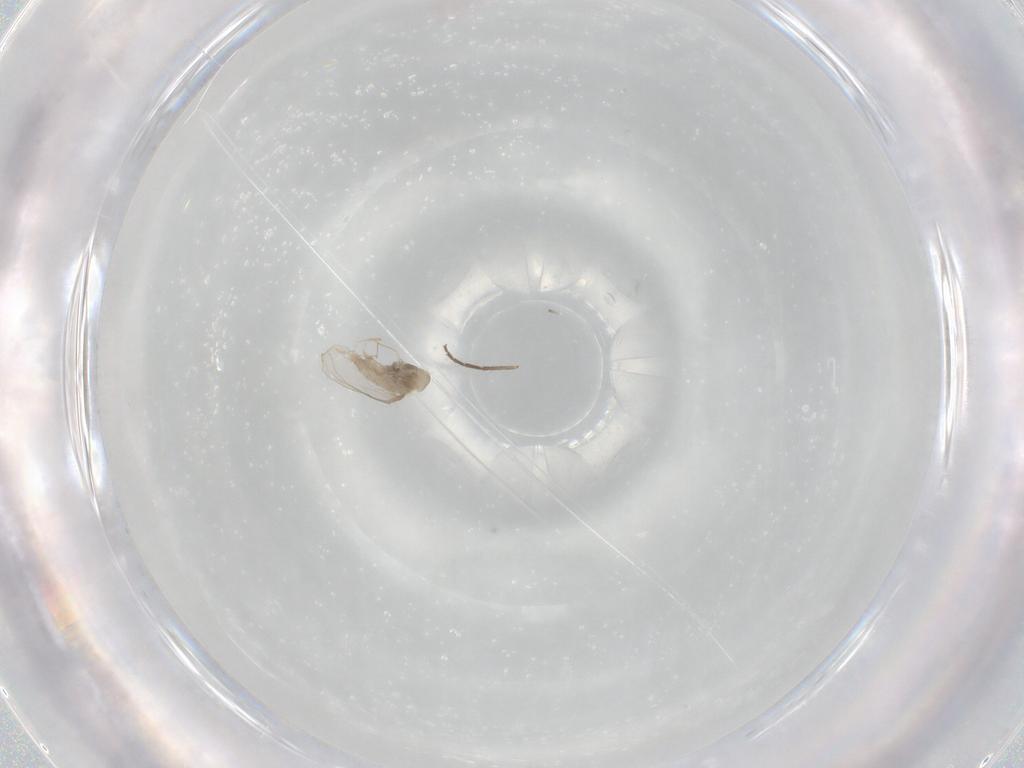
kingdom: Animalia
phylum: Arthropoda
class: Insecta
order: Diptera
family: Cecidomyiidae
